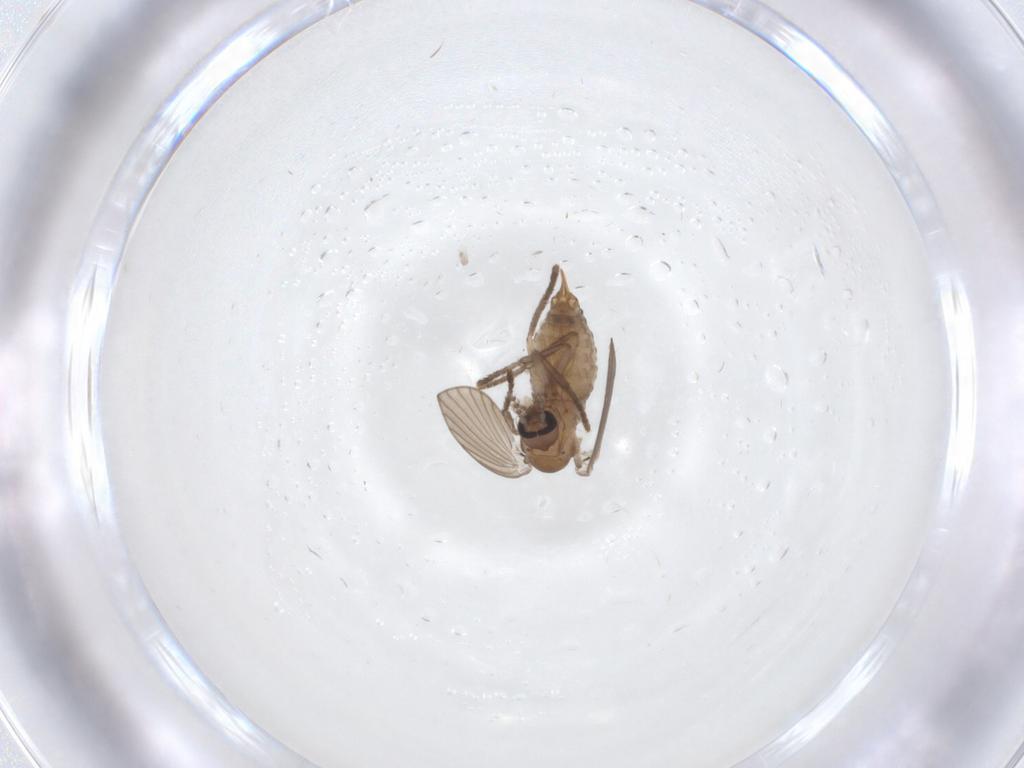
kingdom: Animalia
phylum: Arthropoda
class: Insecta
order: Diptera
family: Psychodidae
